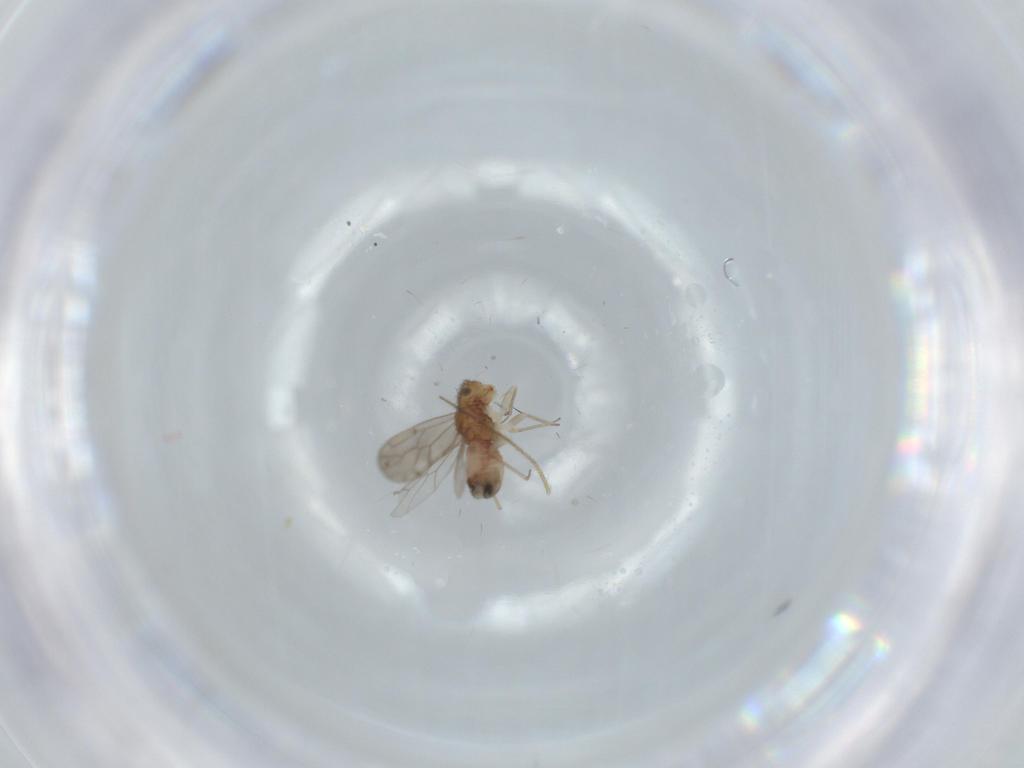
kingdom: Animalia
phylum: Arthropoda
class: Insecta
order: Psocodea
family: Ectopsocidae
